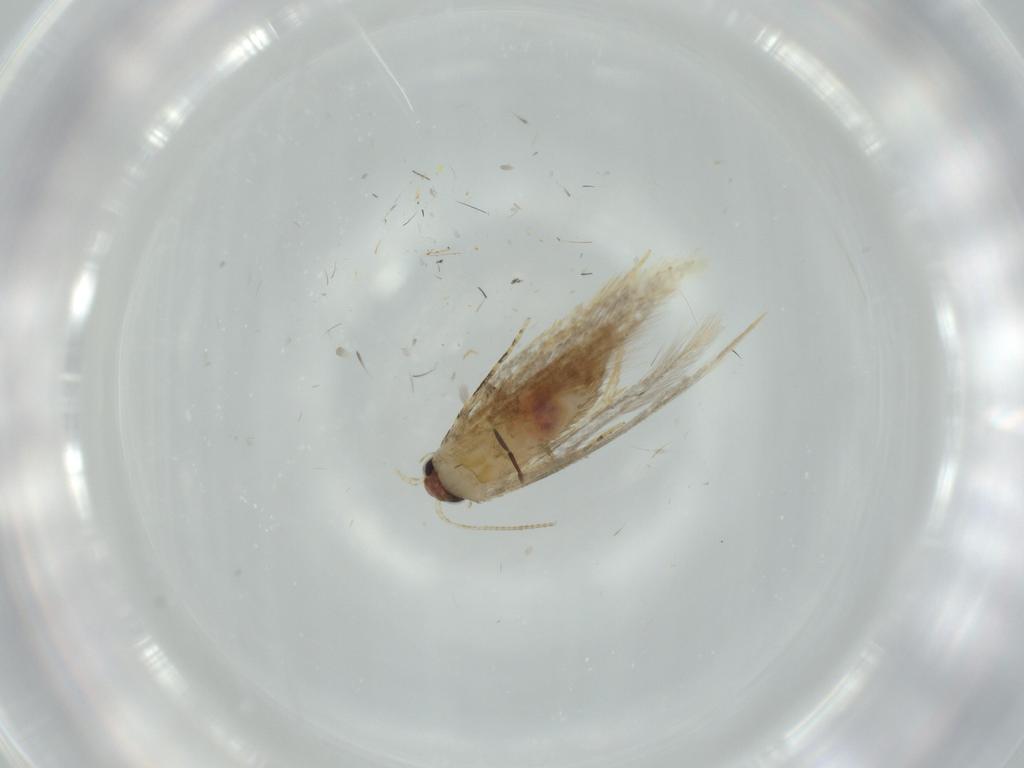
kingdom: Animalia
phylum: Arthropoda
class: Insecta
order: Lepidoptera
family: Tineidae
